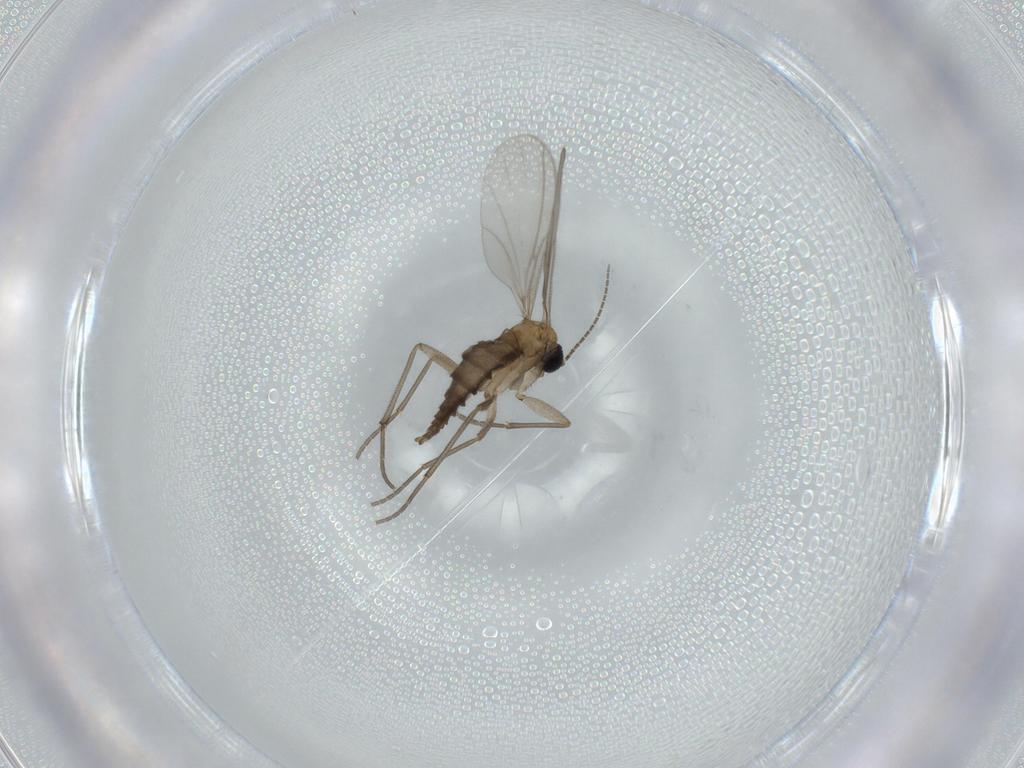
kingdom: Animalia
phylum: Arthropoda
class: Insecta
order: Diptera
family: Sciaridae
